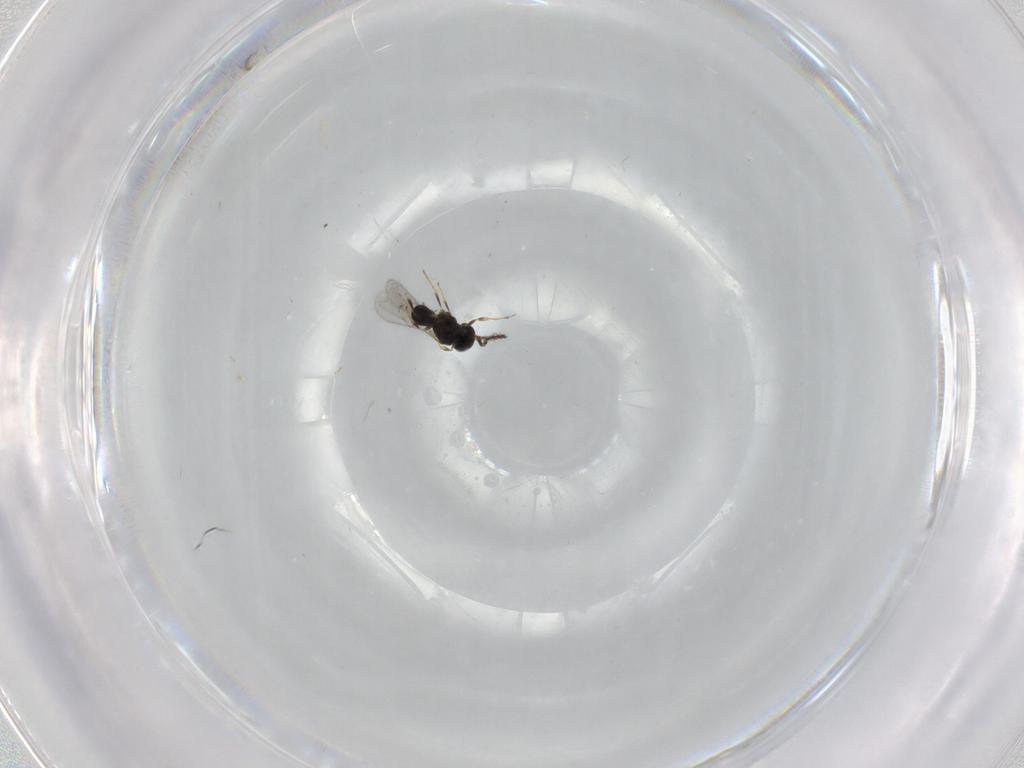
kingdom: Animalia
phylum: Arthropoda
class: Insecta
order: Hymenoptera
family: Scelionidae
